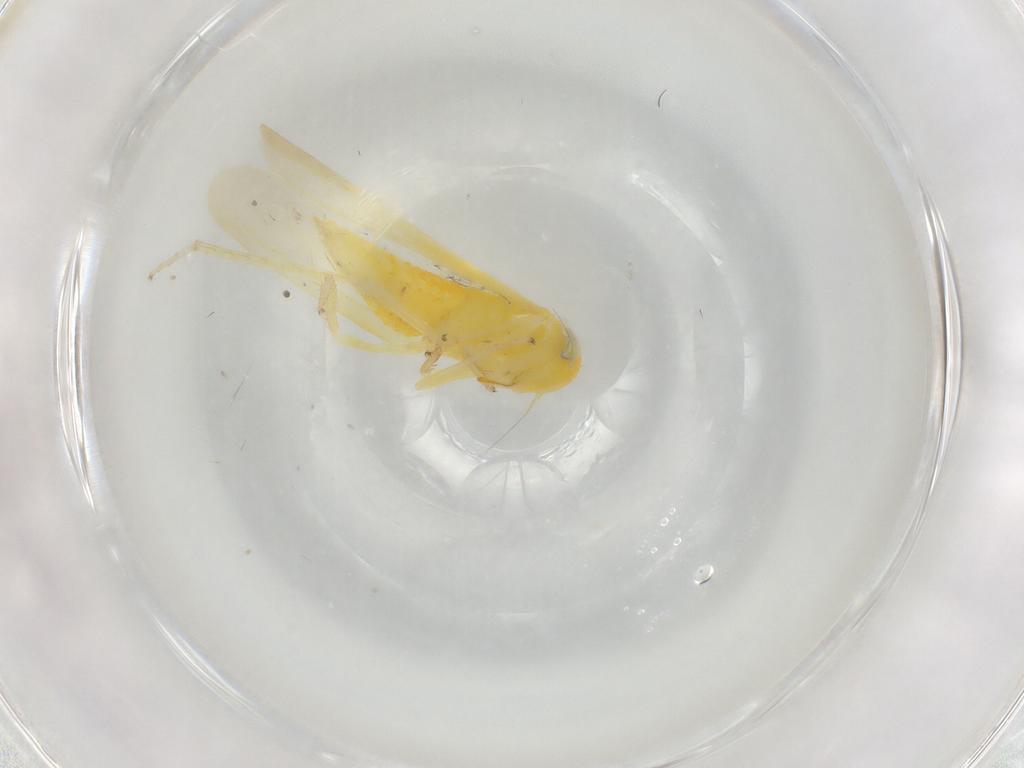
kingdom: Animalia
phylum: Arthropoda
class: Insecta
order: Hemiptera
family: Cicadellidae
